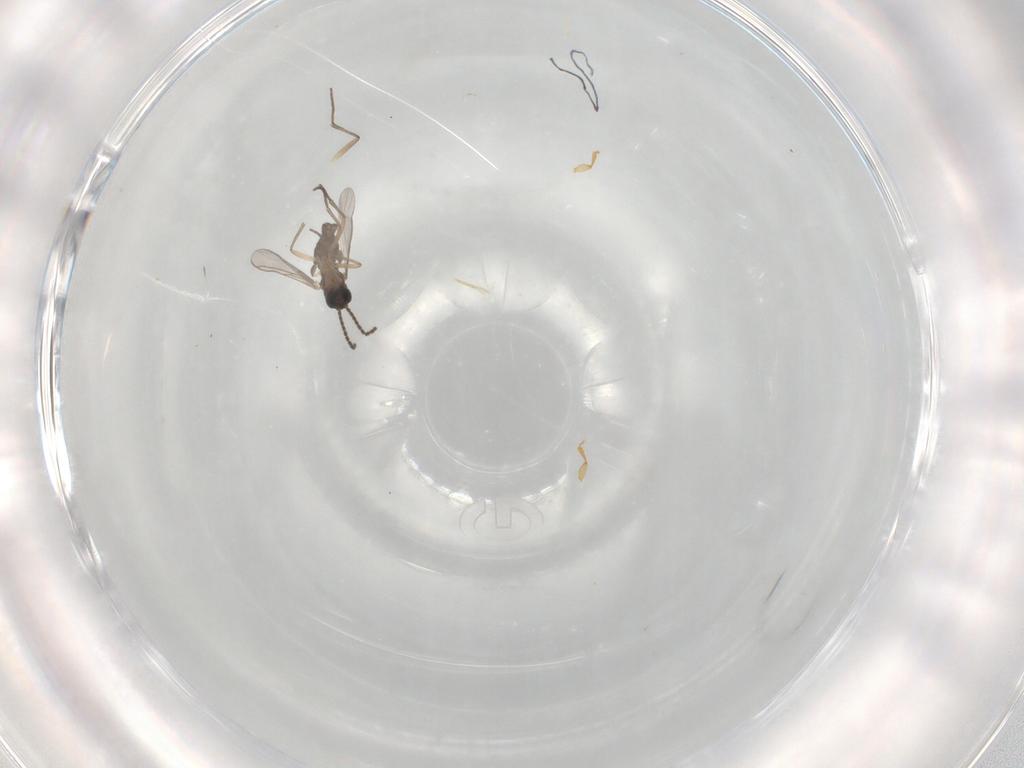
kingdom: Animalia
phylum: Arthropoda
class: Insecta
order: Diptera
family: Sciaridae
